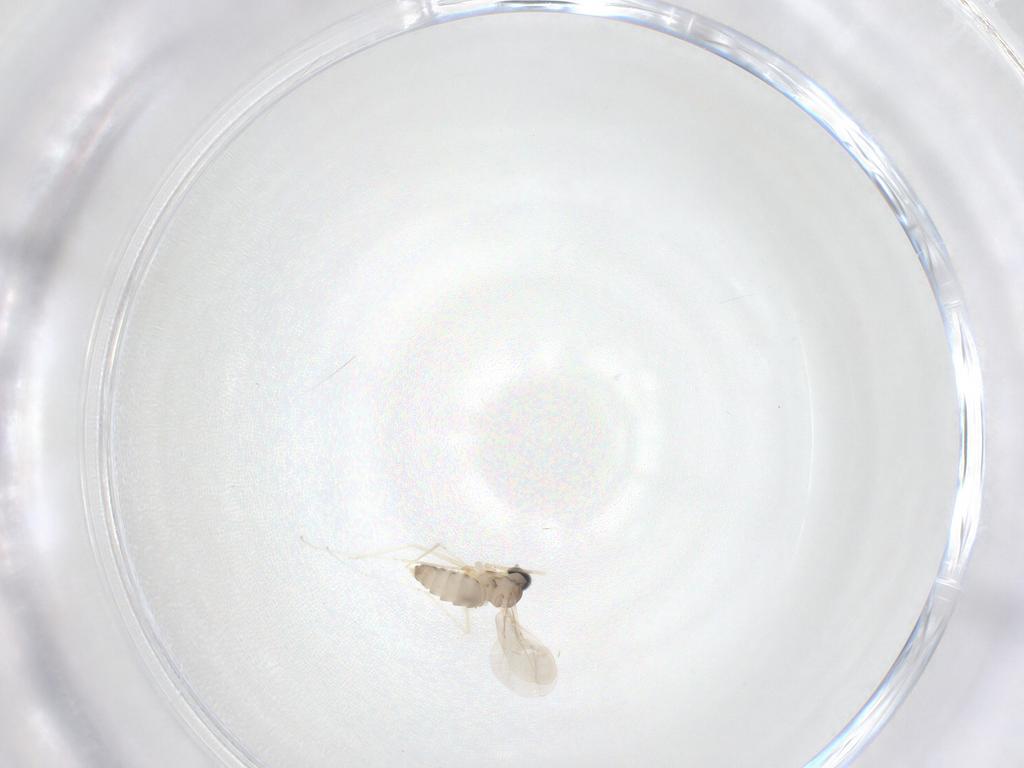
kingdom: Animalia
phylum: Arthropoda
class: Insecta
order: Diptera
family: Cecidomyiidae
